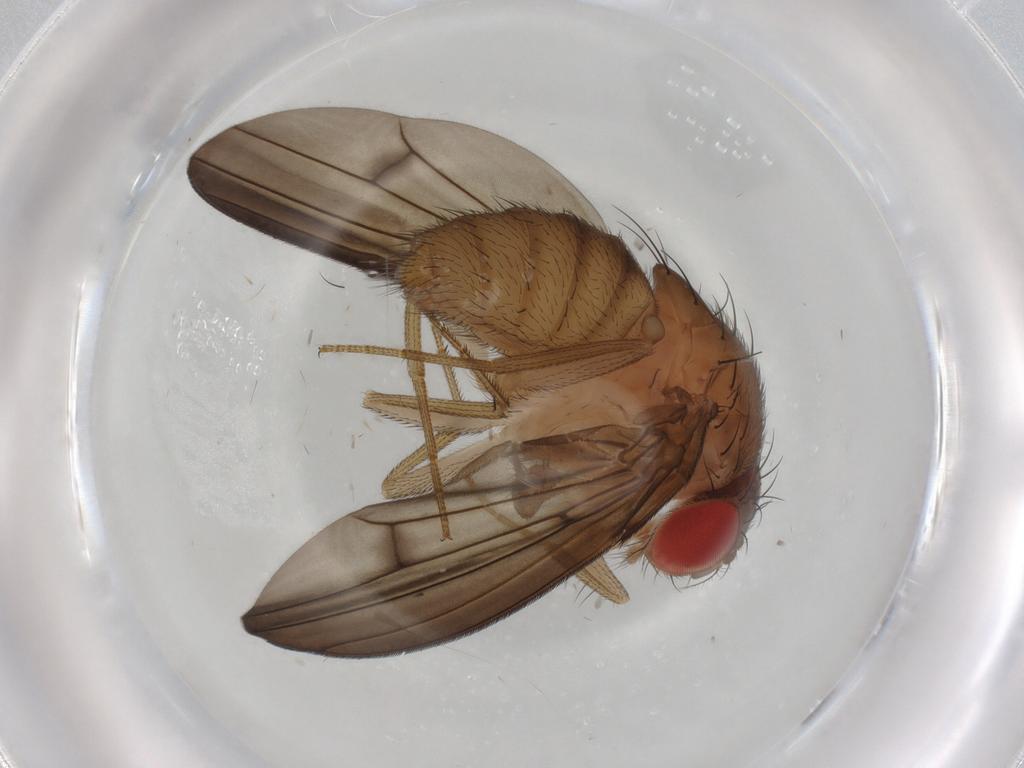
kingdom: Animalia
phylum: Arthropoda
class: Insecta
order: Diptera
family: Drosophilidae
